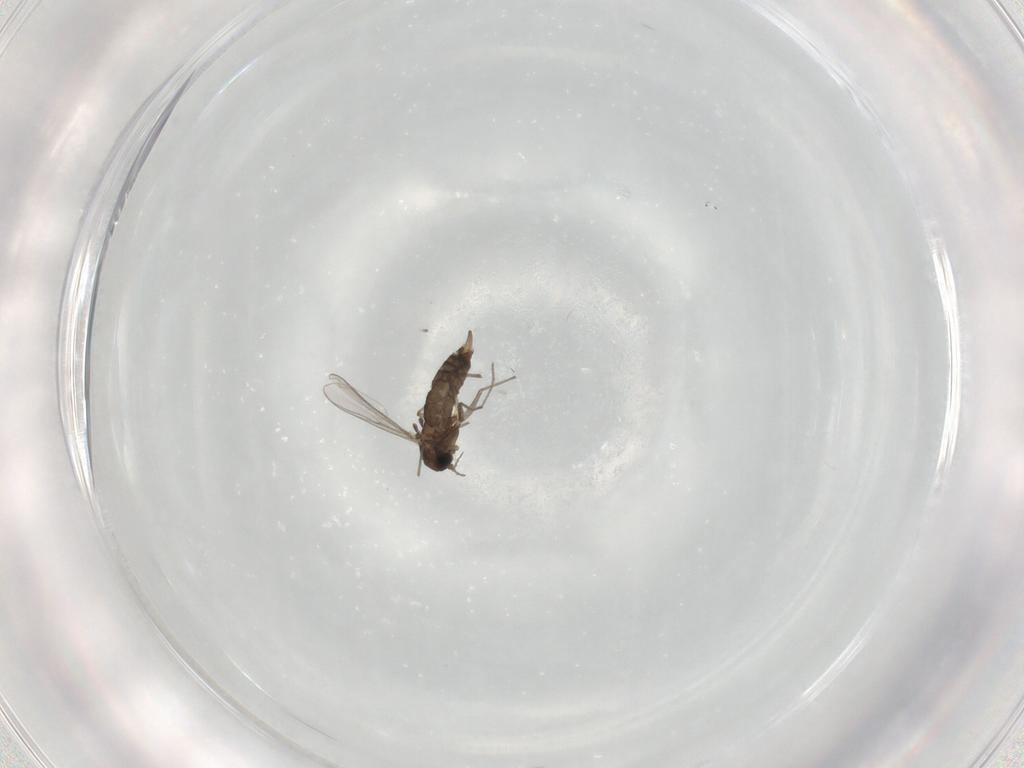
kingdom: Animalia
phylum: Arthropoda
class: Insecta
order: Diptera
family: Chironomidae
